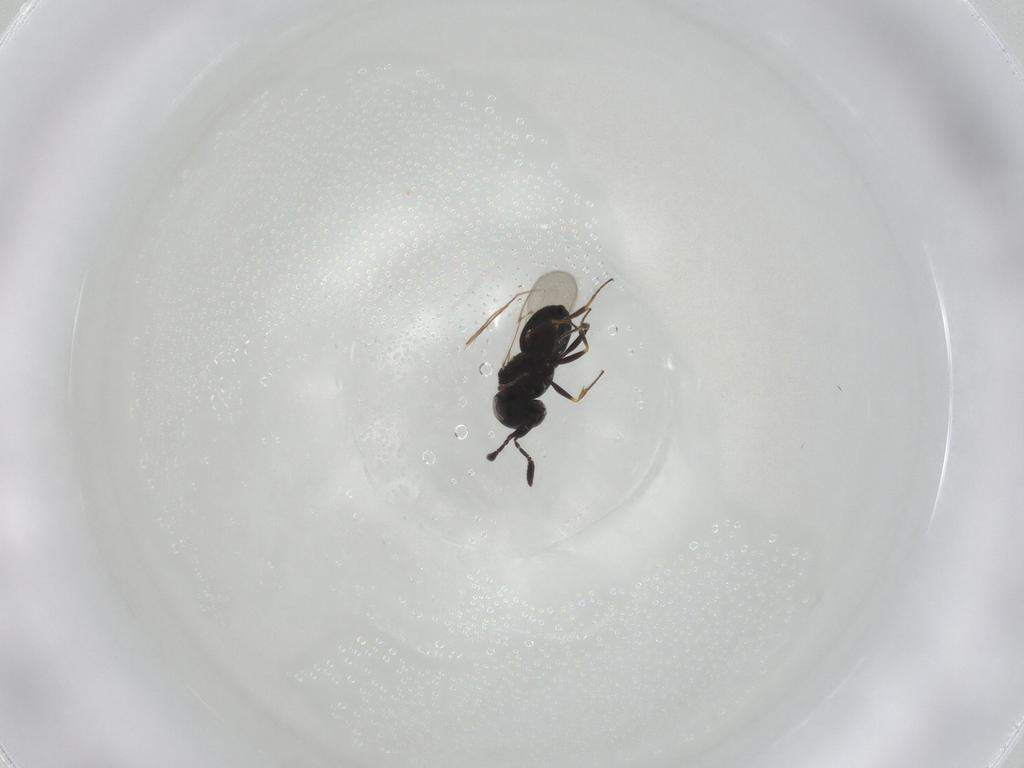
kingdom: Animalia
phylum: Arthropoda
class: Insecta
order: Hymenoptera
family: Scelionidae
